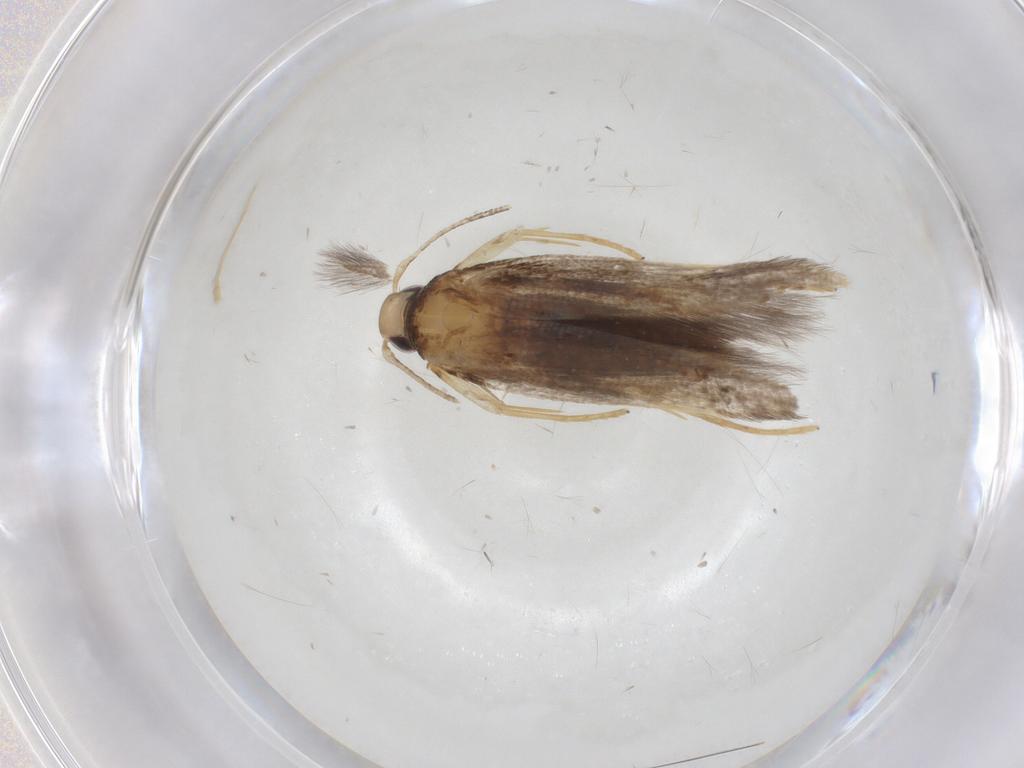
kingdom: Animalia
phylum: Arthropoda
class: Insecta
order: Lepidoptera
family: Cosmopterigidae
